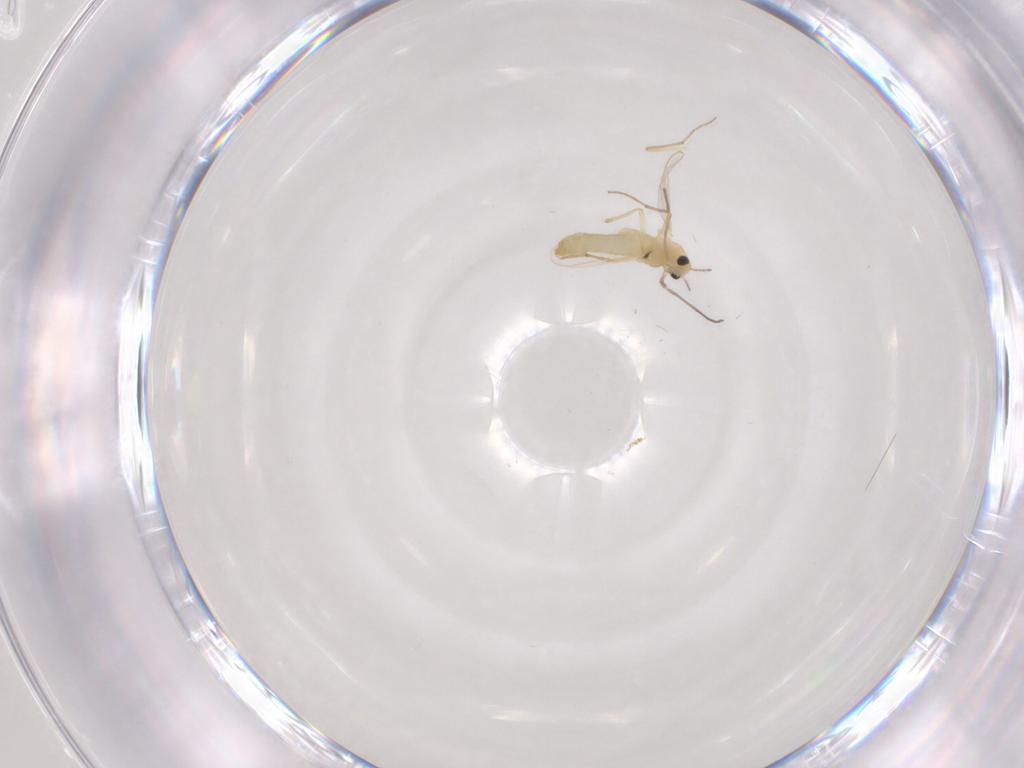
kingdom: Animalia
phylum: Arthropoda
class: Insecta
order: Diptera
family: Chironomidae
